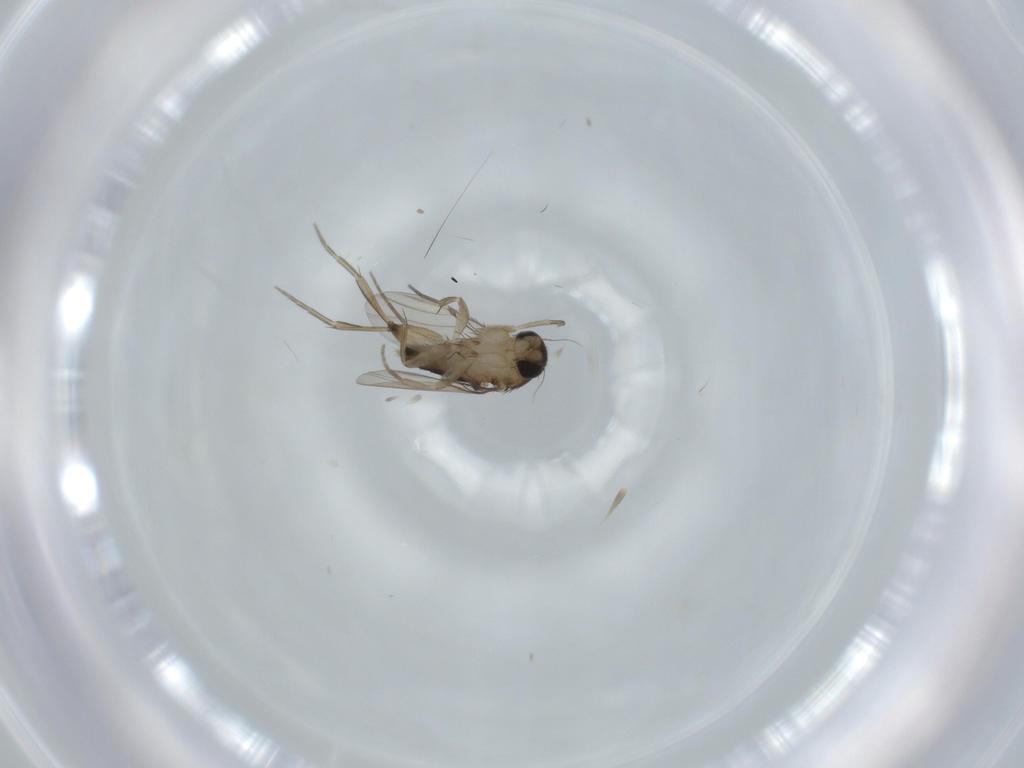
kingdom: Animalia
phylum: Arthropoda
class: Insecta
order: Diptera
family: Phoridae
